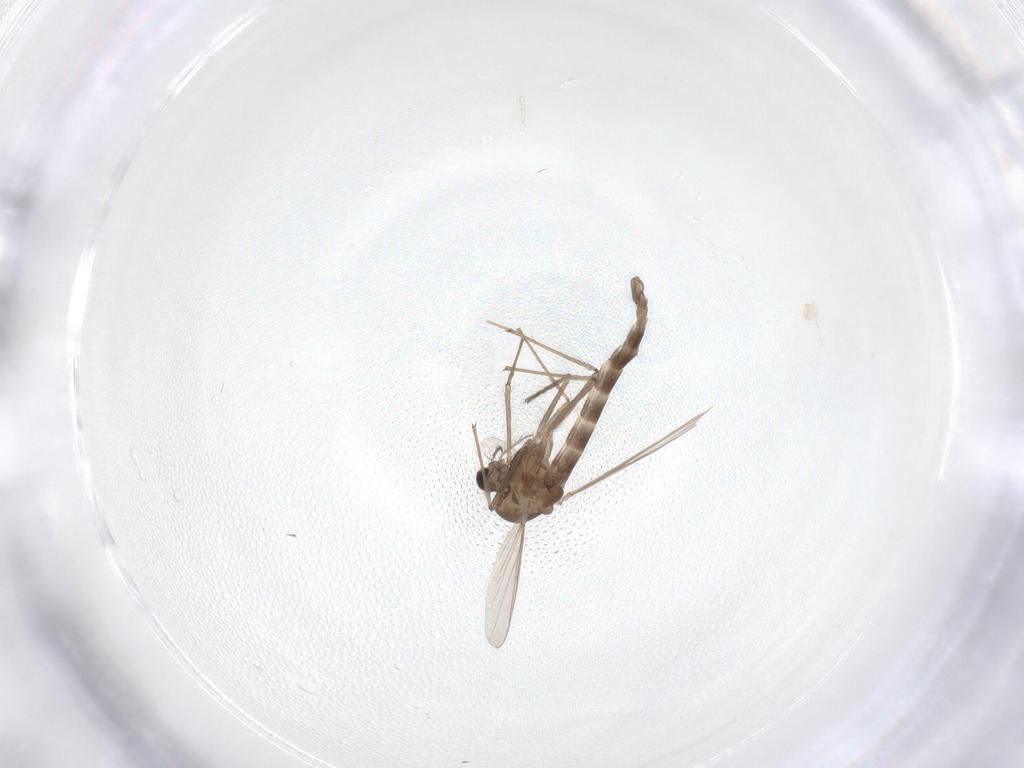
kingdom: Animalia
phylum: Arthropoda
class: Insecta
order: Diptera
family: Chironomidae
